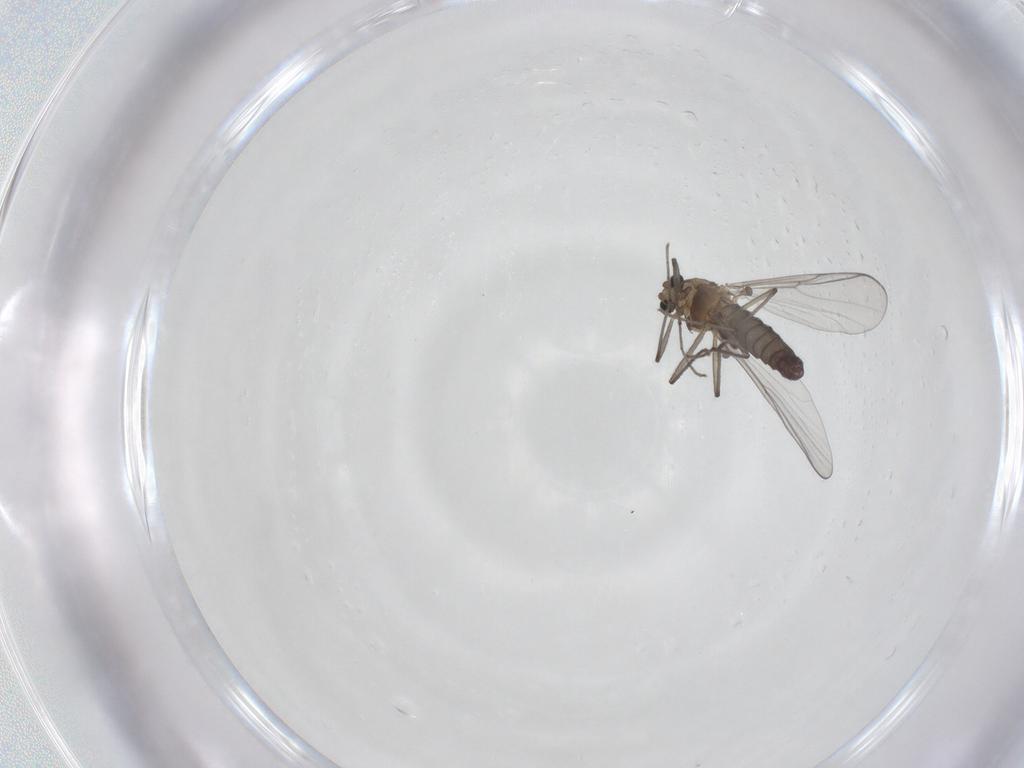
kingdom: Animalia
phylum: Arthropoda
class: Insecta
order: Diptera
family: Chironomidae
